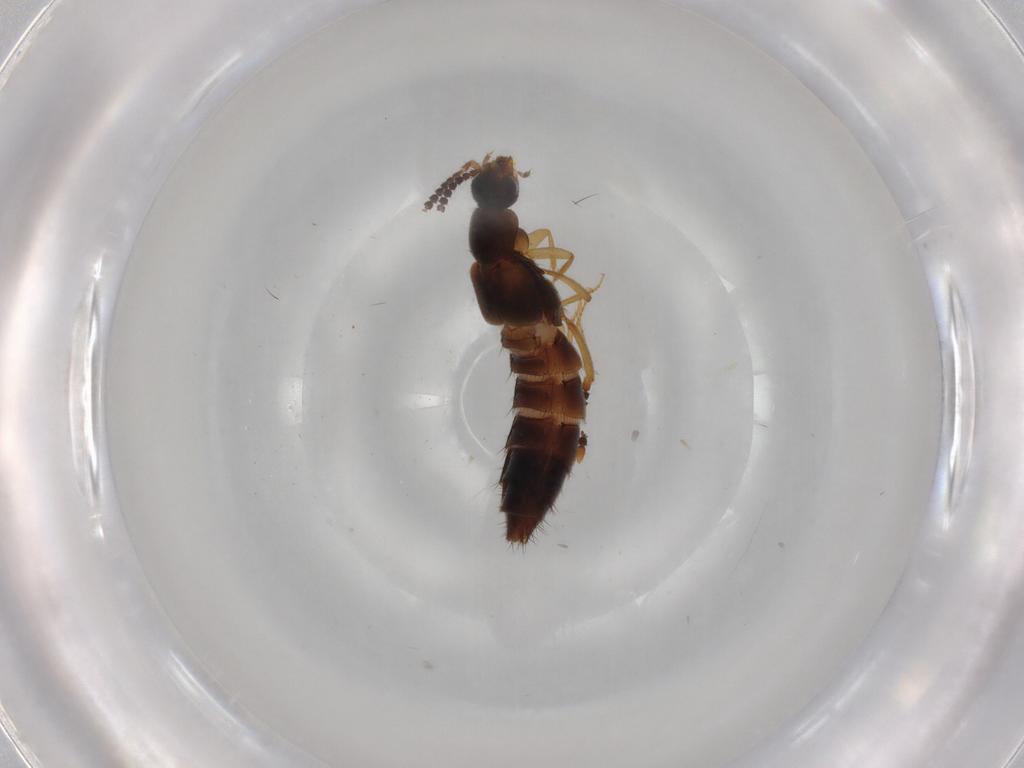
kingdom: Animalia
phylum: Arthropoda
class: Insecta
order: Coleoptera
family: Staphylinidae
